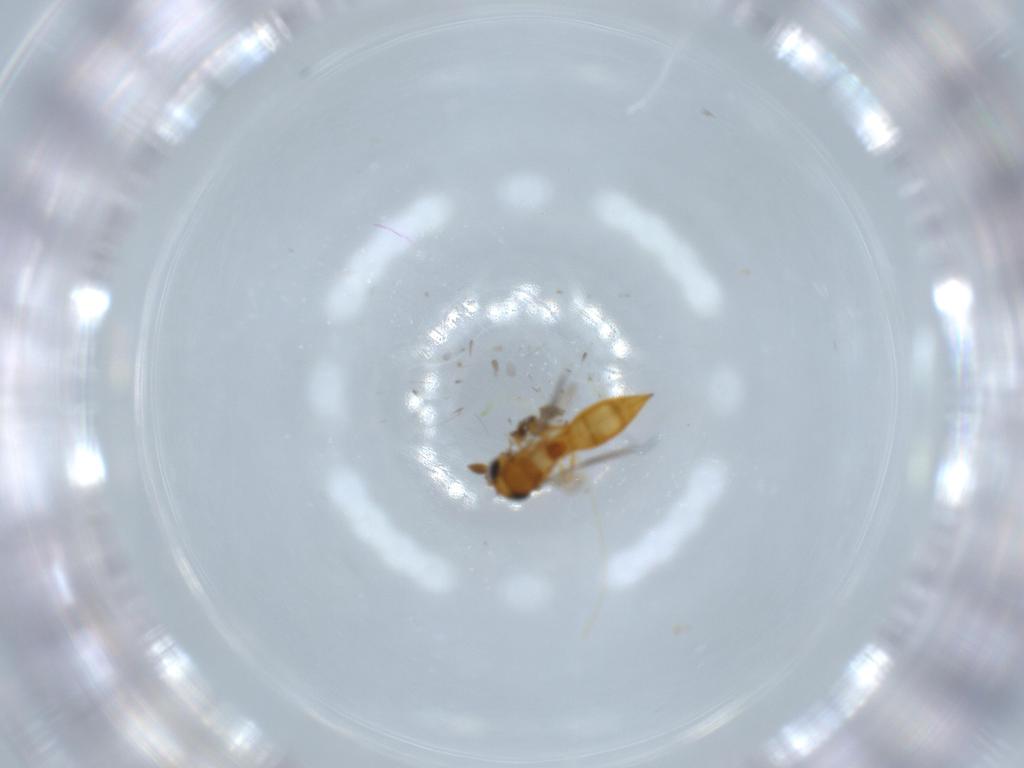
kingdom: Animalia
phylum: Arthropoda
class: Insecta
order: Hymenoptera
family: Scelionidae
